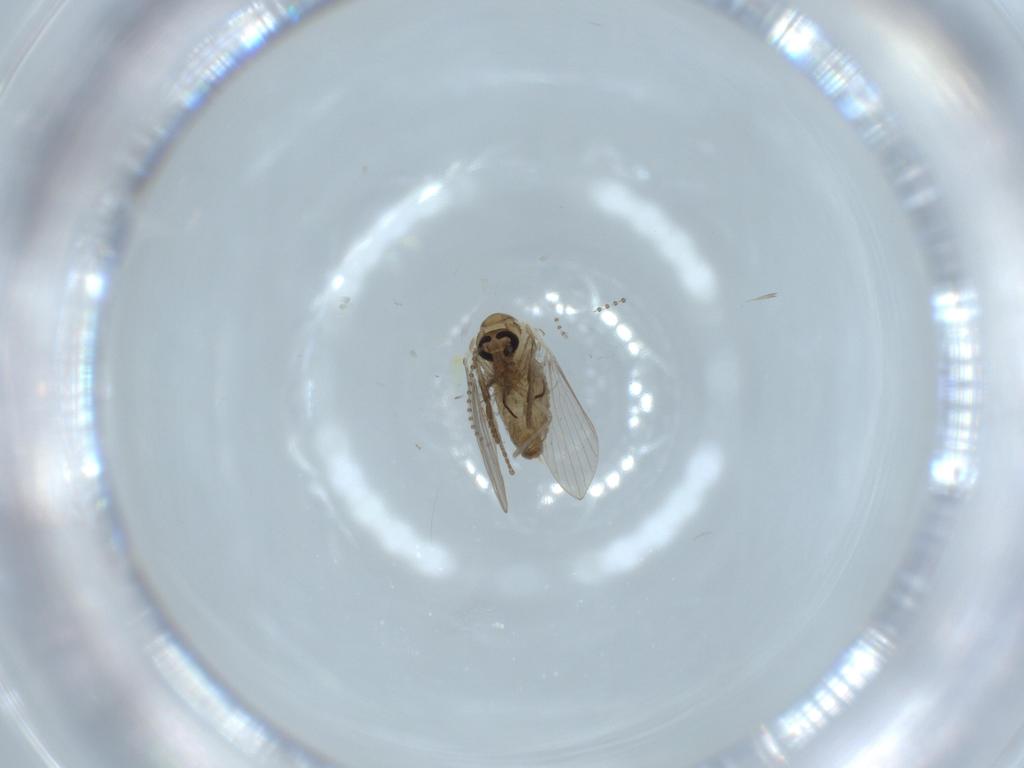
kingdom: Animalia
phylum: Arthropoda
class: Insecta
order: Diptera
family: Psychodidae
